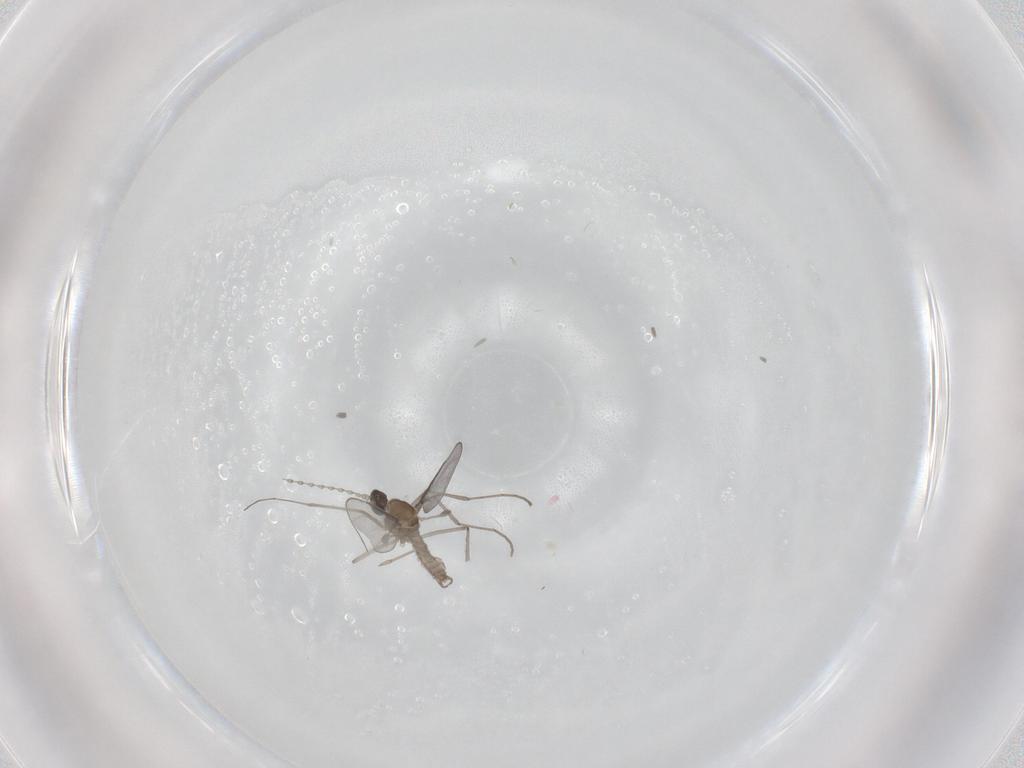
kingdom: Animalia
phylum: Arthropoda
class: Insecta
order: Diptera
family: Cecidomyiidae
